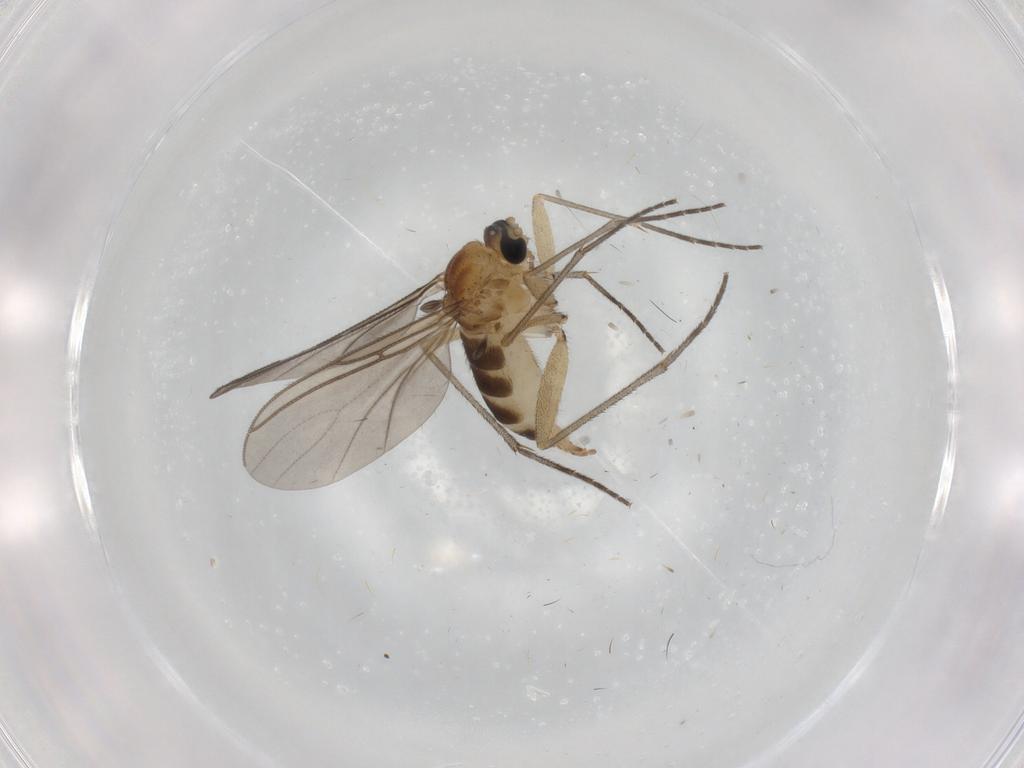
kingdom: Animalia
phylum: Arthropoda
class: Insecta
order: Diptera
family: Sciaridae
